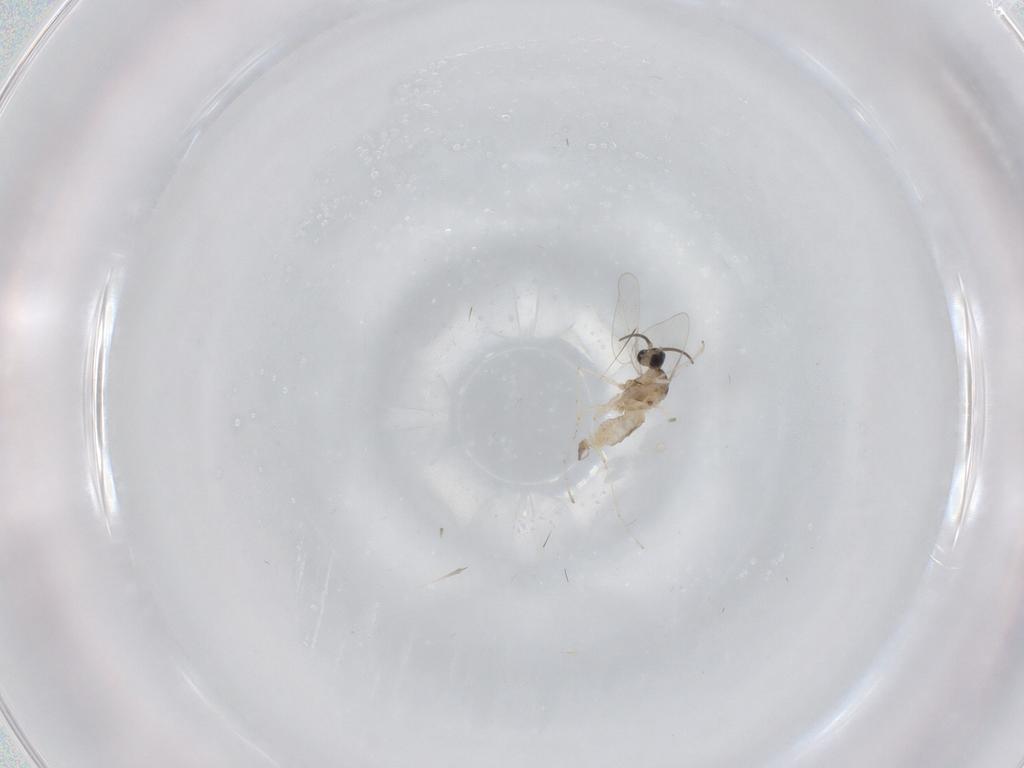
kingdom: Animalia
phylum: Arthropoda
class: Insecta
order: Diptera
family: Cecidomyiidae
